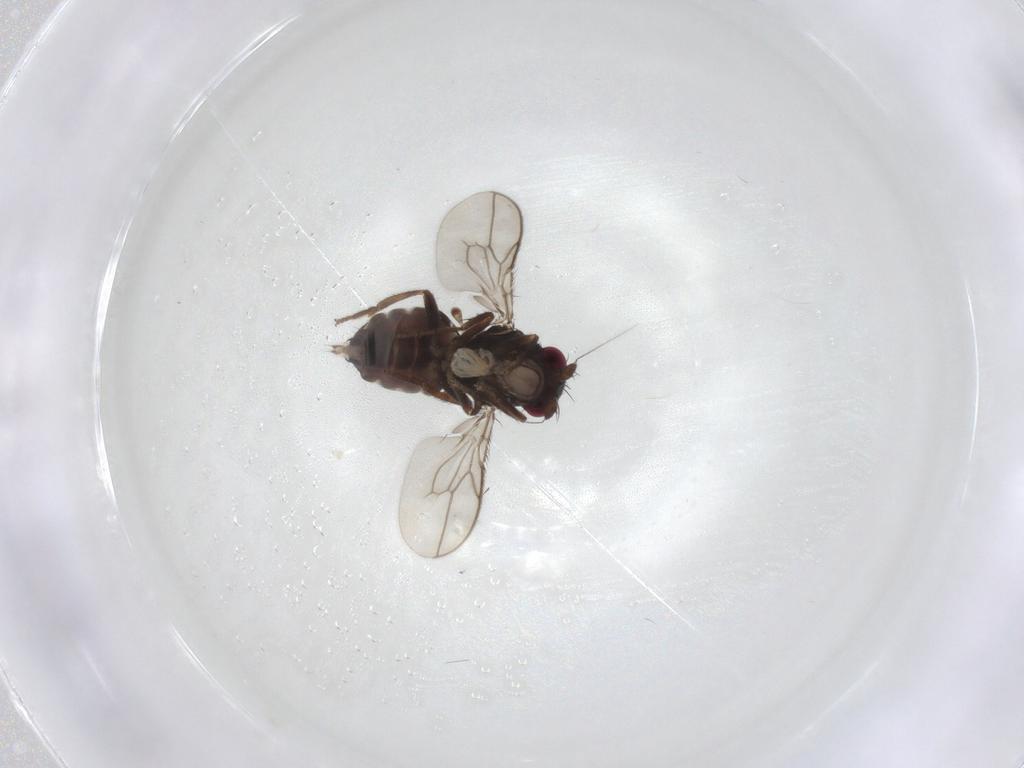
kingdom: Animalia
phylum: Arthropoda
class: Insecta
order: Diptera
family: Sphaeroceridae
